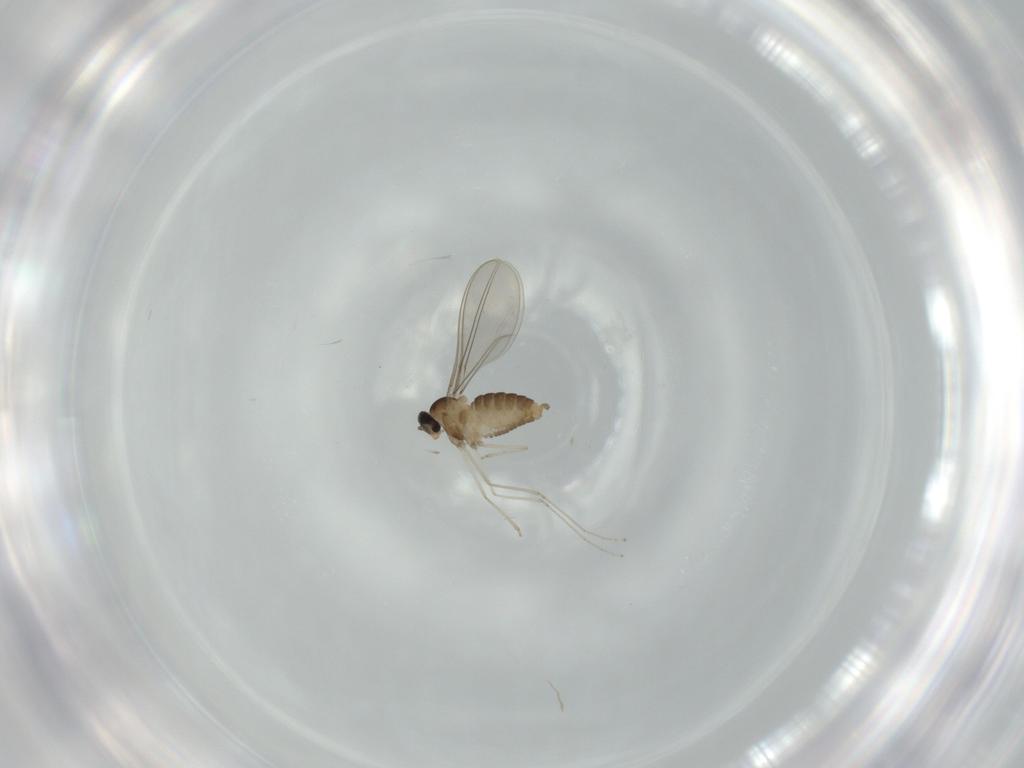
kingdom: Animalia
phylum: Arthropoda
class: Insecta
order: Diptera
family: Cecidomyiidae
